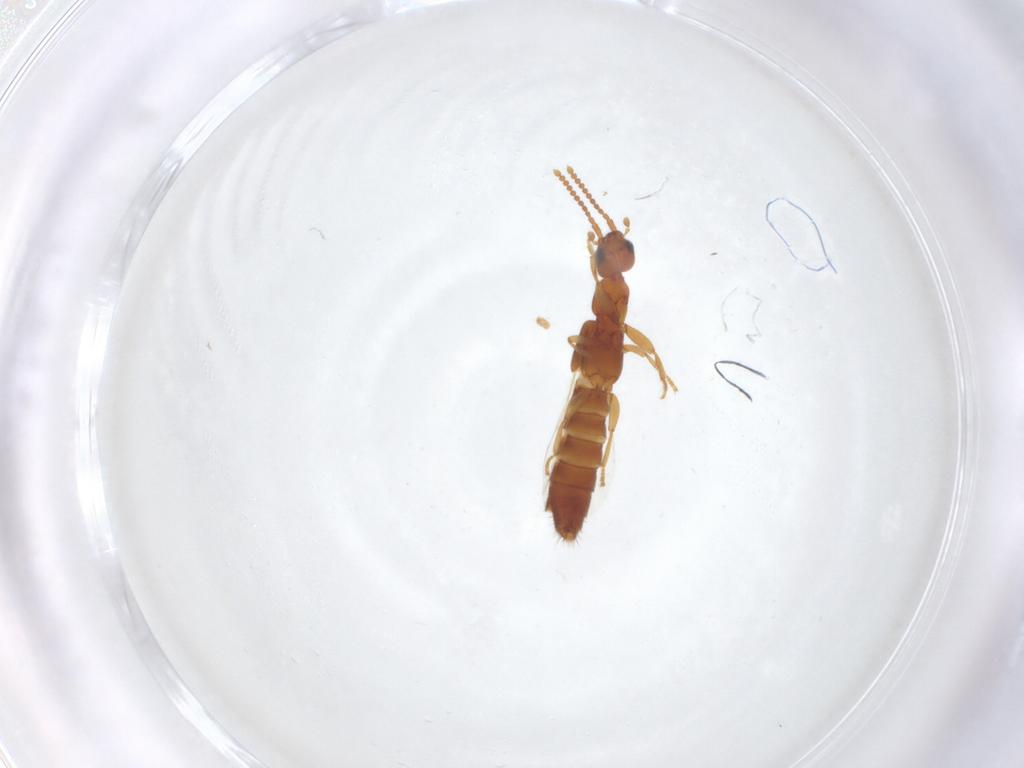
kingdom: Animalia
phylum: Arthropoda
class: Insecta
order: Coleoptera
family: Staphylinidae
